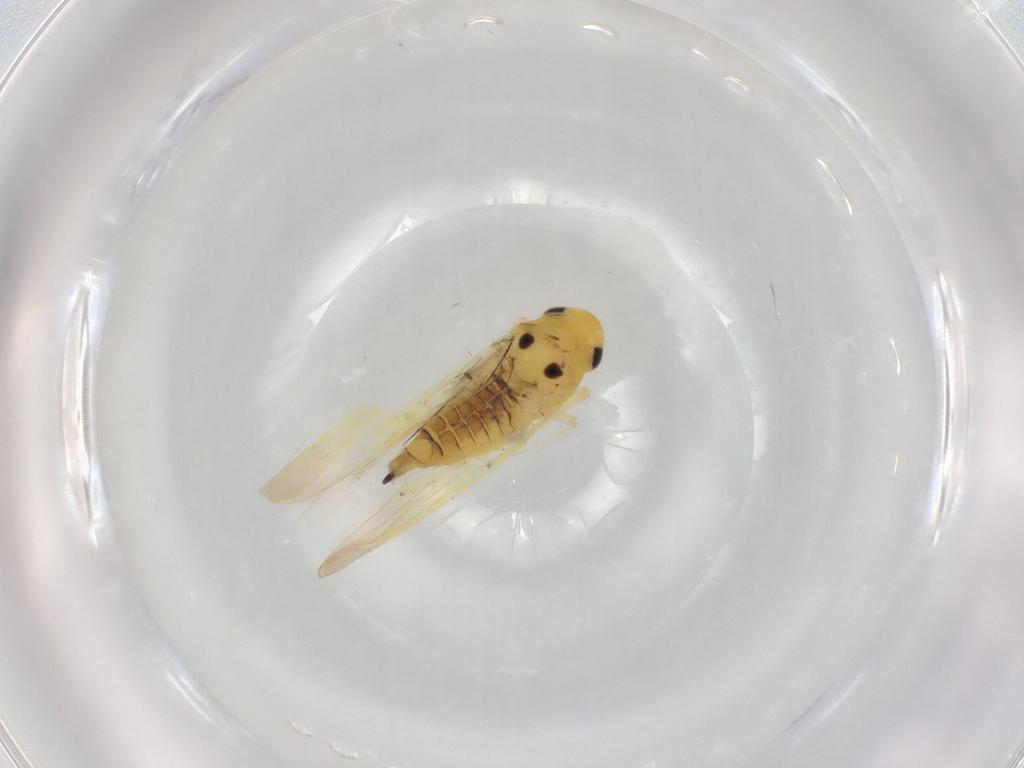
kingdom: Animalia
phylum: Arthropoda
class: Insecta
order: Hemiptera
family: Cicadellidae
